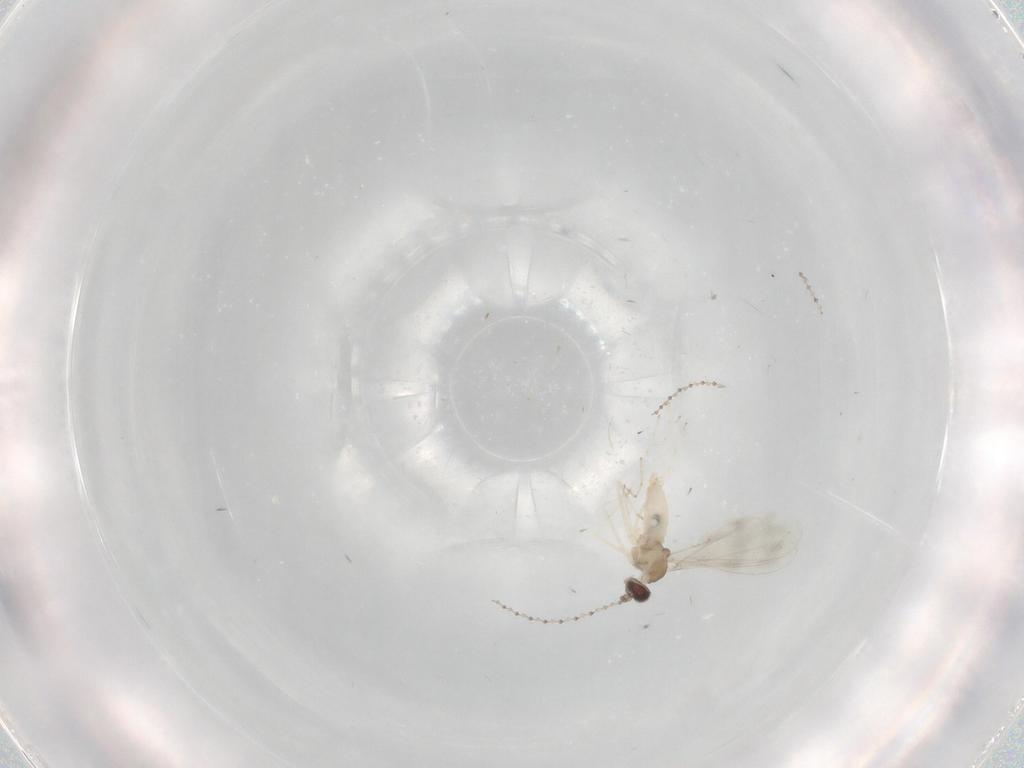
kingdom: Animalia
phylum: Arthropoda
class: Insecta
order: Diptera
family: Cecidomyiidae
